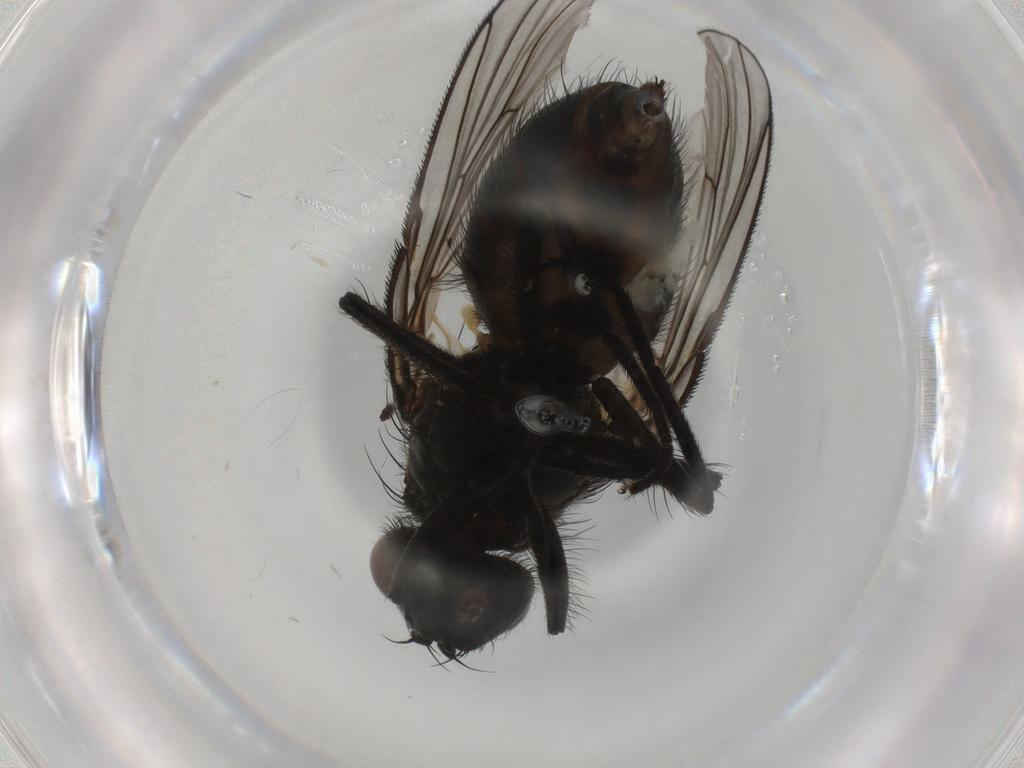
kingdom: Animalia
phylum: Arthropoda
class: Insecta
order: Diptera
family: Muscidae
